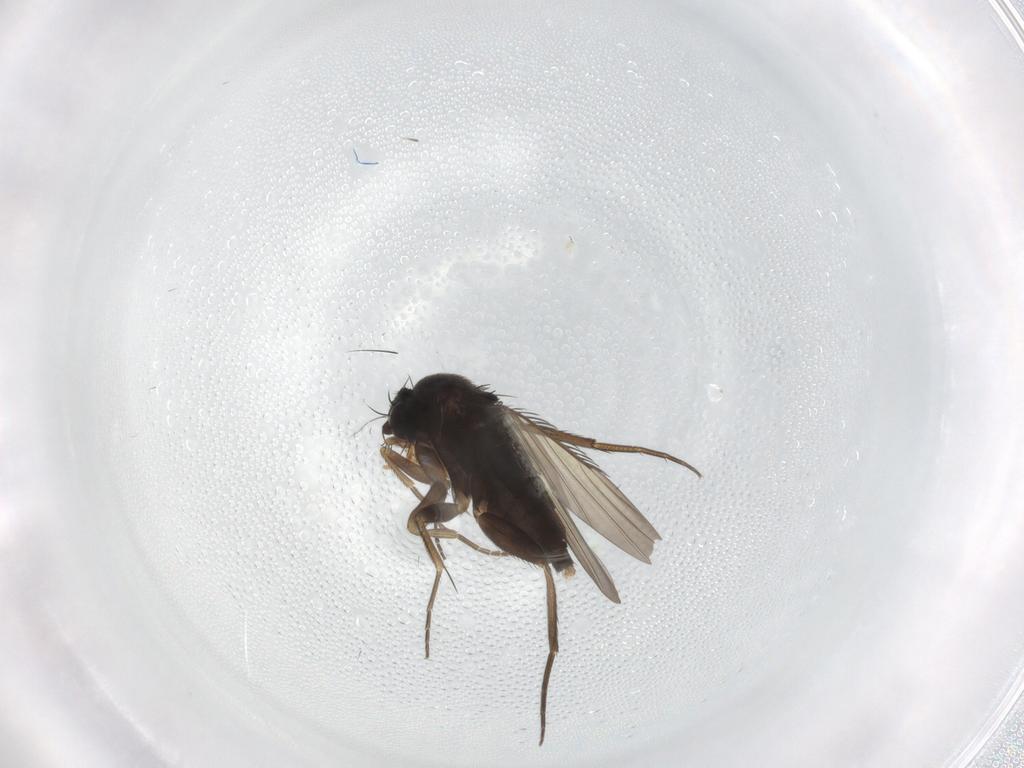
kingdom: Animalia
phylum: Arthropoda
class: Insecta
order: Diptera
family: Phoridae
